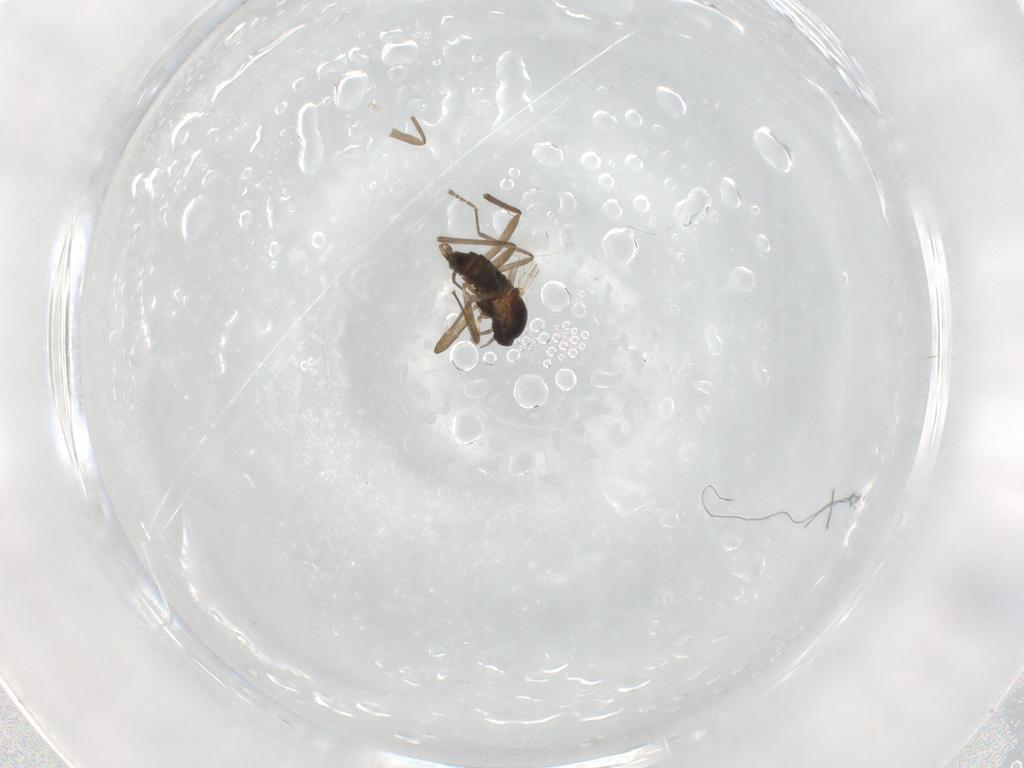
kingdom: Animalia
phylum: Arthropoda
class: Insecta
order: Diptera
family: Cecidomyiidae
